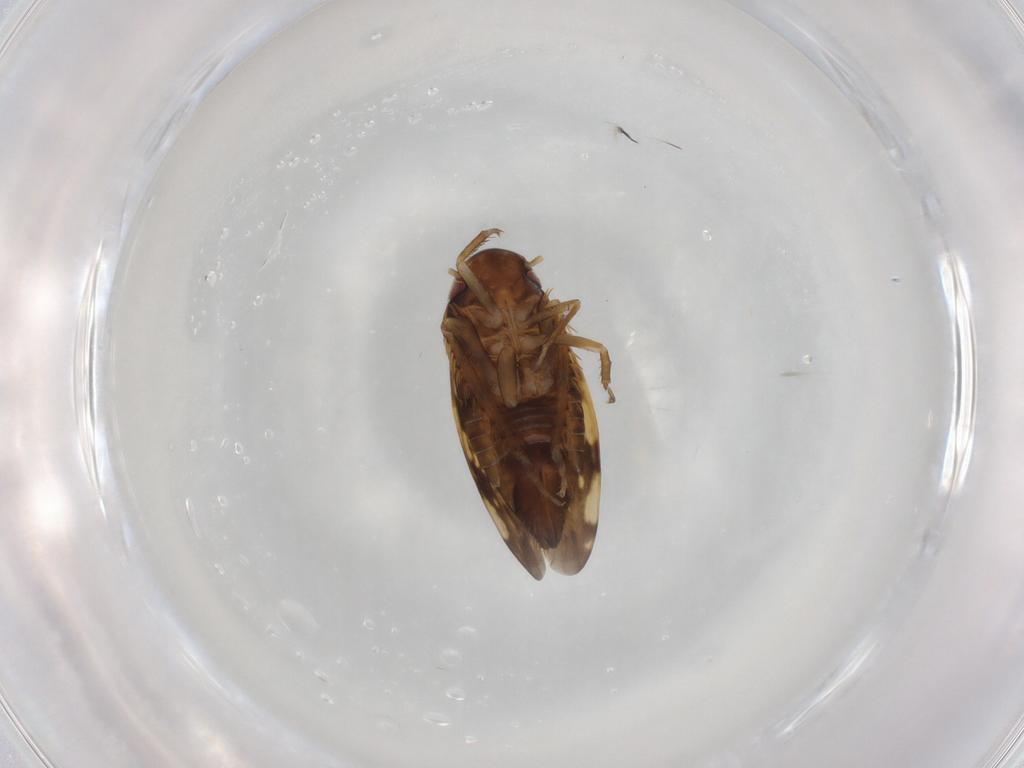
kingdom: Animalia
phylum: Arthropoda
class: Insecta
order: Hemiptera
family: Cicadellidae
